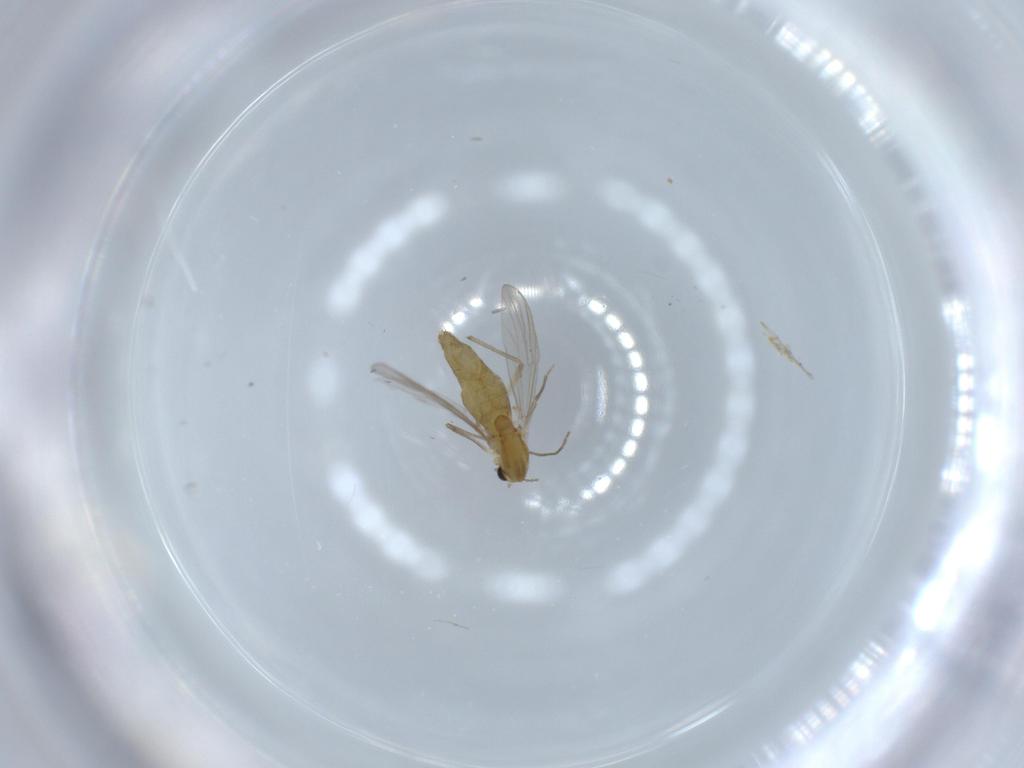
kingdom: Animalia
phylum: Arthropoda
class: Insecta
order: Diptera
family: Chironomidae
